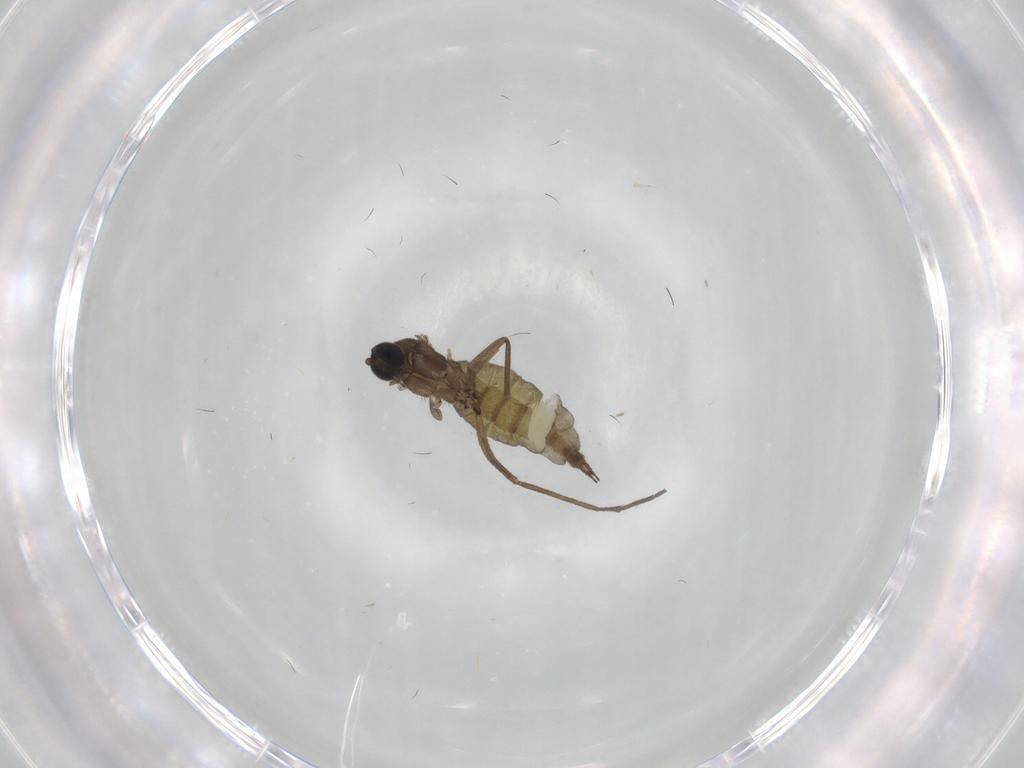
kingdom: Animalia
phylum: Arthropoda
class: Insecta
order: Diptera
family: Sciaridae
